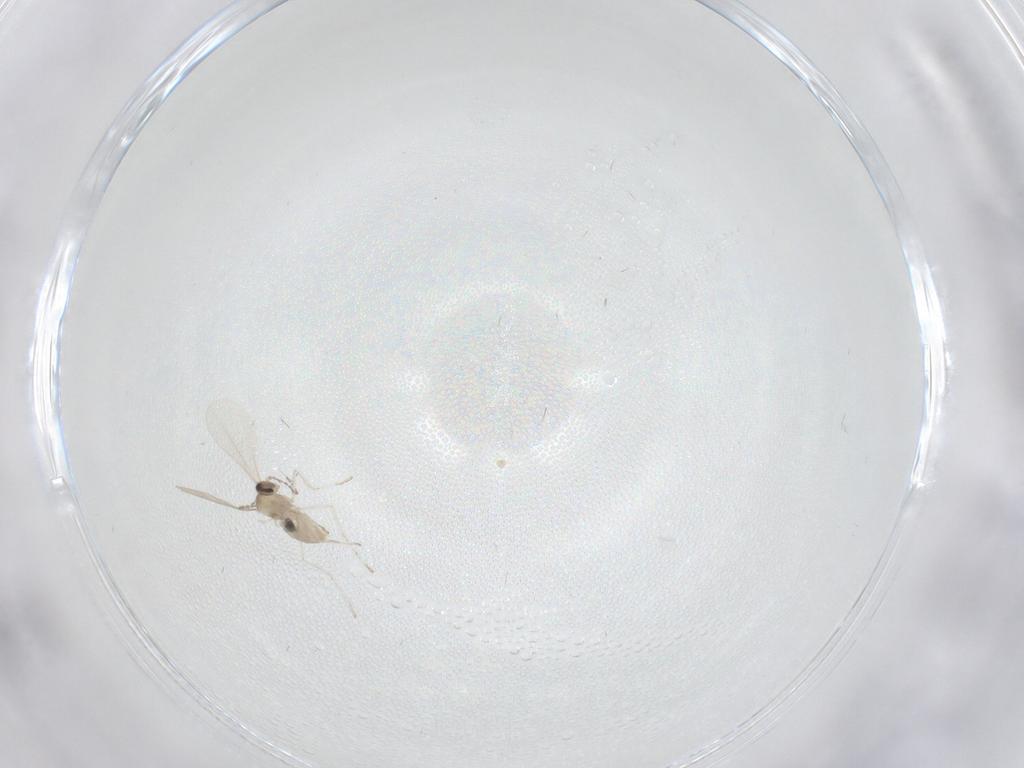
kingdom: Animalia
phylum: Arthropoda
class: Insecta
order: Diptera
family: Limoniidae
